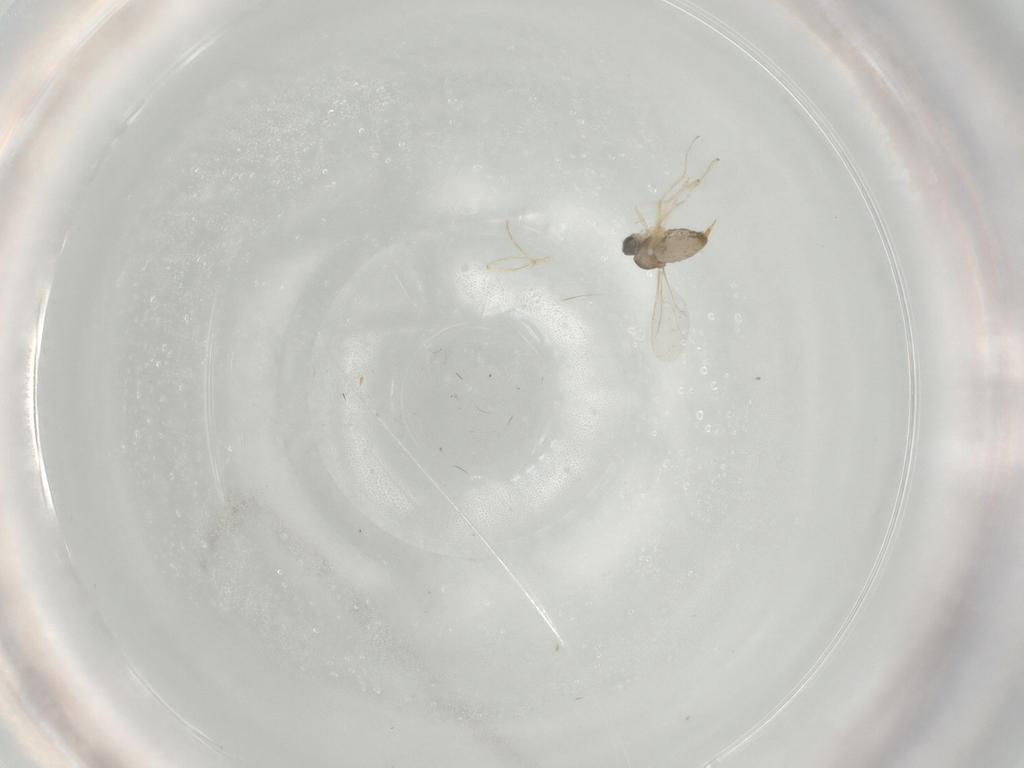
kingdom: Animalia
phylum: Arthropoda
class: Insecta
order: Diptera
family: Cecidomyiidae
